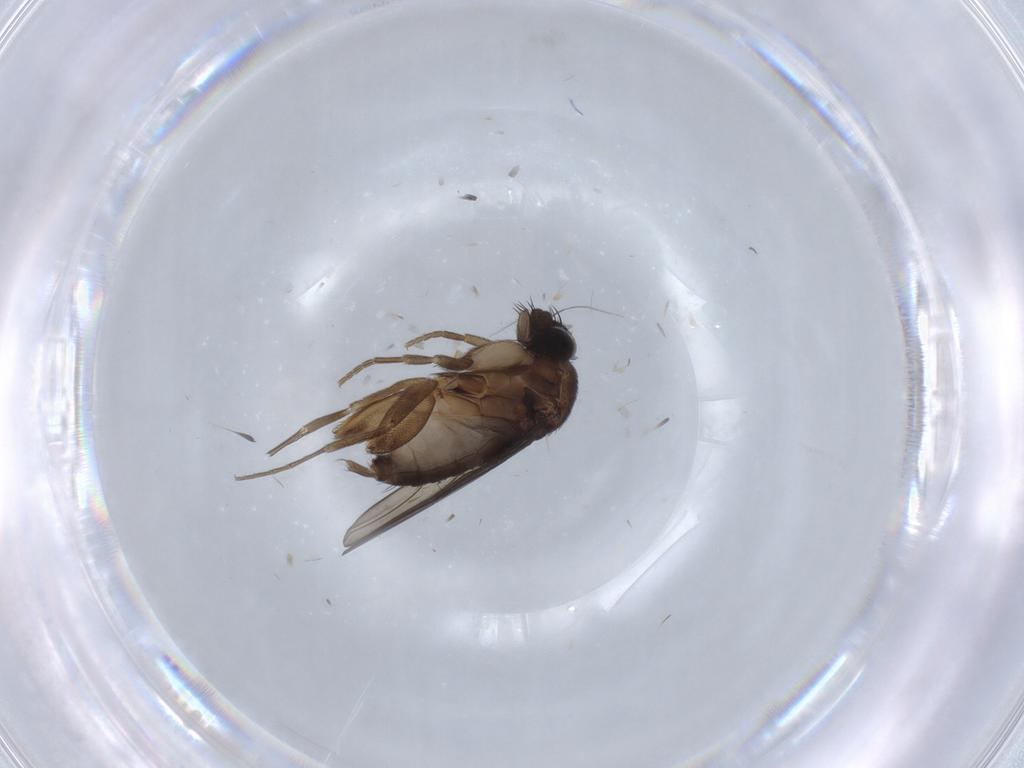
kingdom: Animalia
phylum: Arthropoda
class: Insecta
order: Diptera
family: Phoridae
